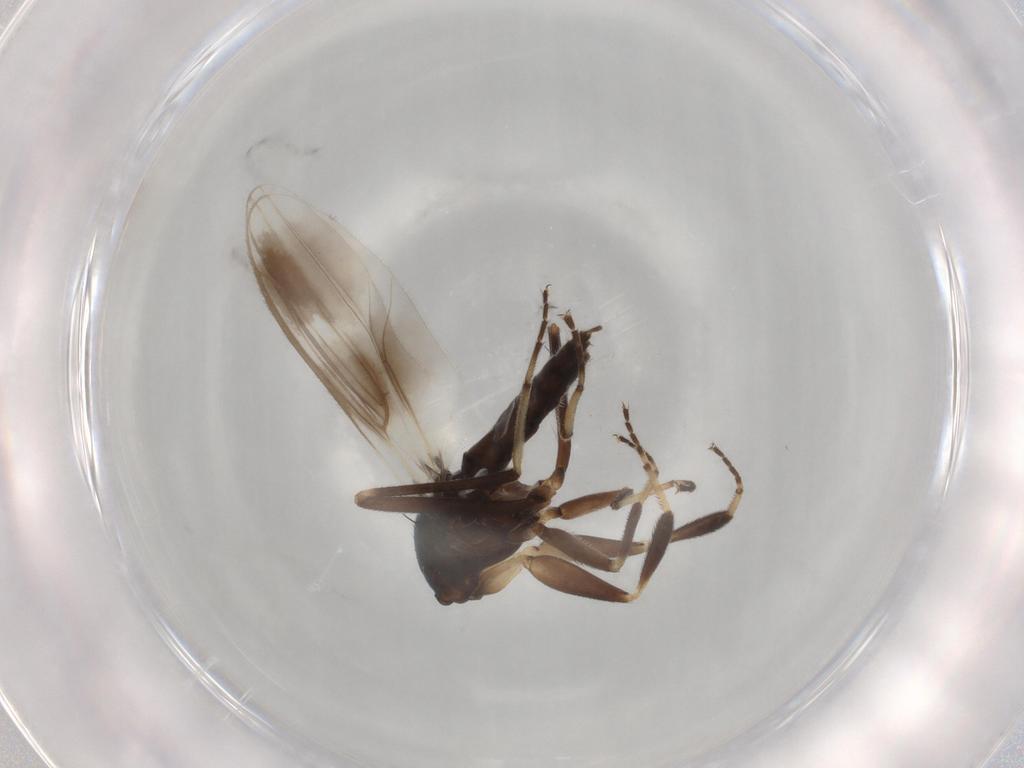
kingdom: Animalia
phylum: Arthropoda
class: Insecta
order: Diptera
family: Hybotidae
